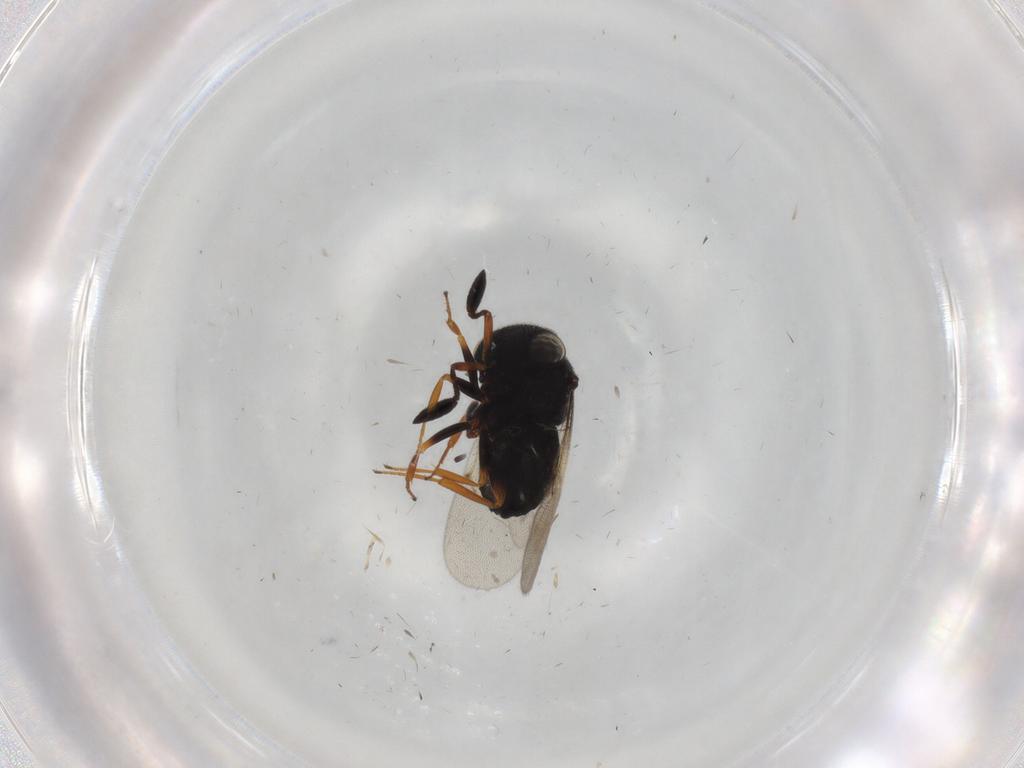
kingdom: Animalia
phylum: Arthropoda
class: Insecta
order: Hymenoptera
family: Scelionidae
